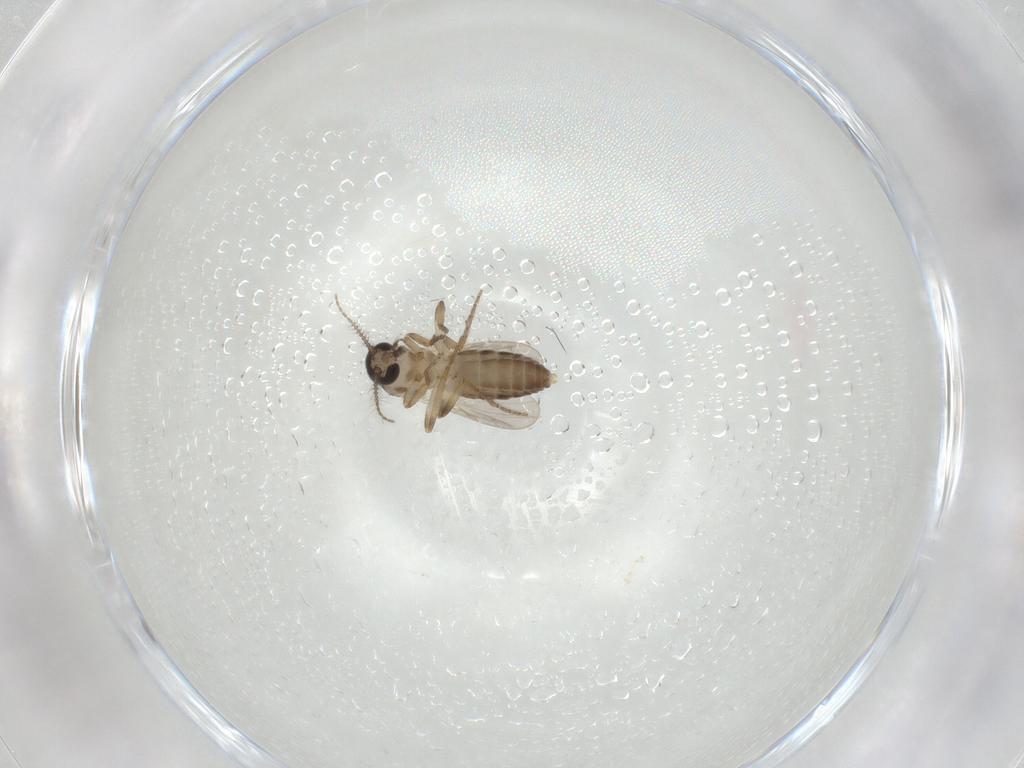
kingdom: Animalia
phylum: Arthropoda
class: Insecta
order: Diptera
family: Ceratopogonidae
